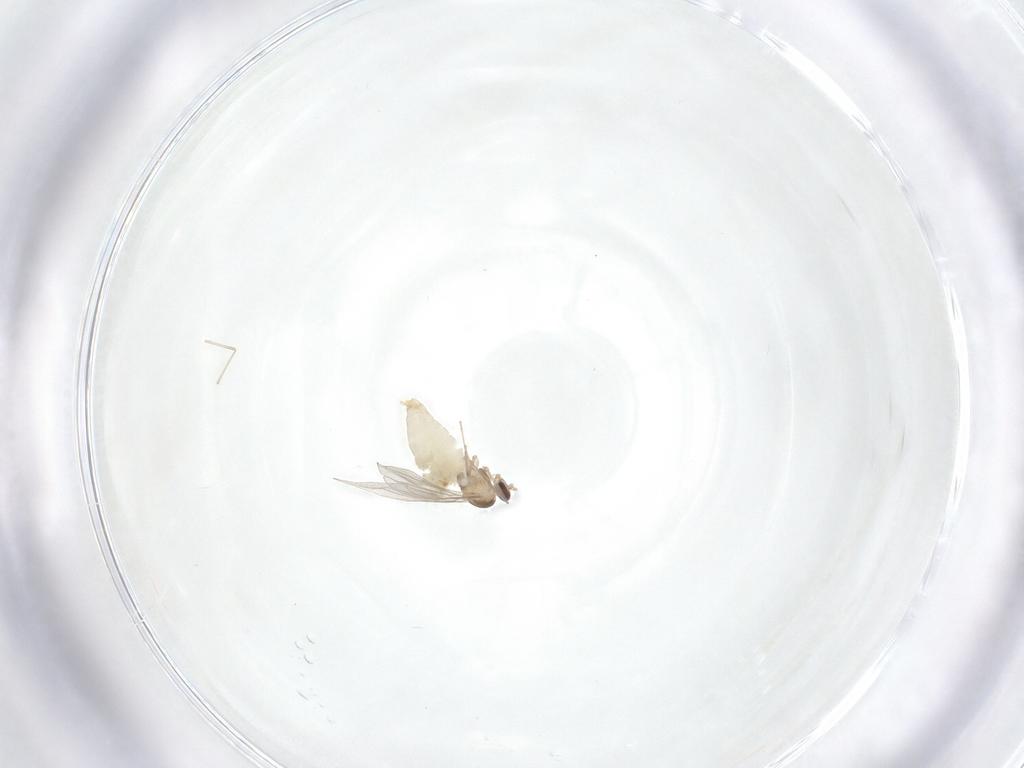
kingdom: Animalia
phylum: Arthropoda
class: Insecta
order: Diptera
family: Cecidomyiidae
